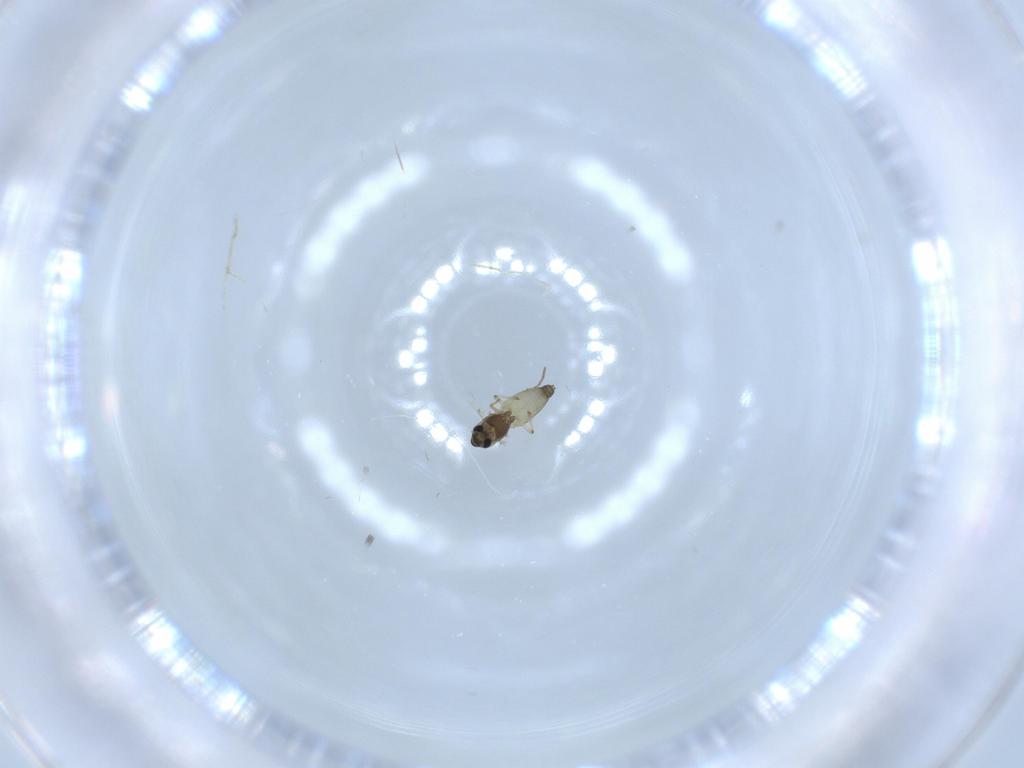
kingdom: Animalia
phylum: Arthropoda
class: Insecta
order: Diptera
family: Chironomidae
